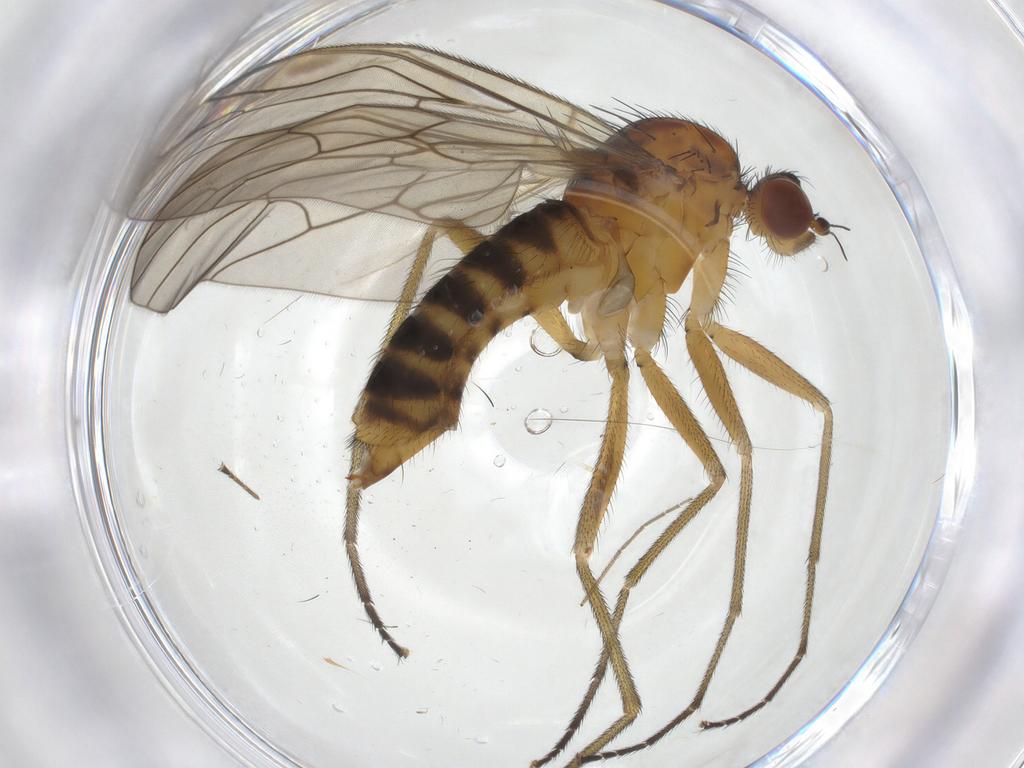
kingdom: Animalia
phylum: Arthropoda
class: Insecta
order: Diptera
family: Brachystomatidae
